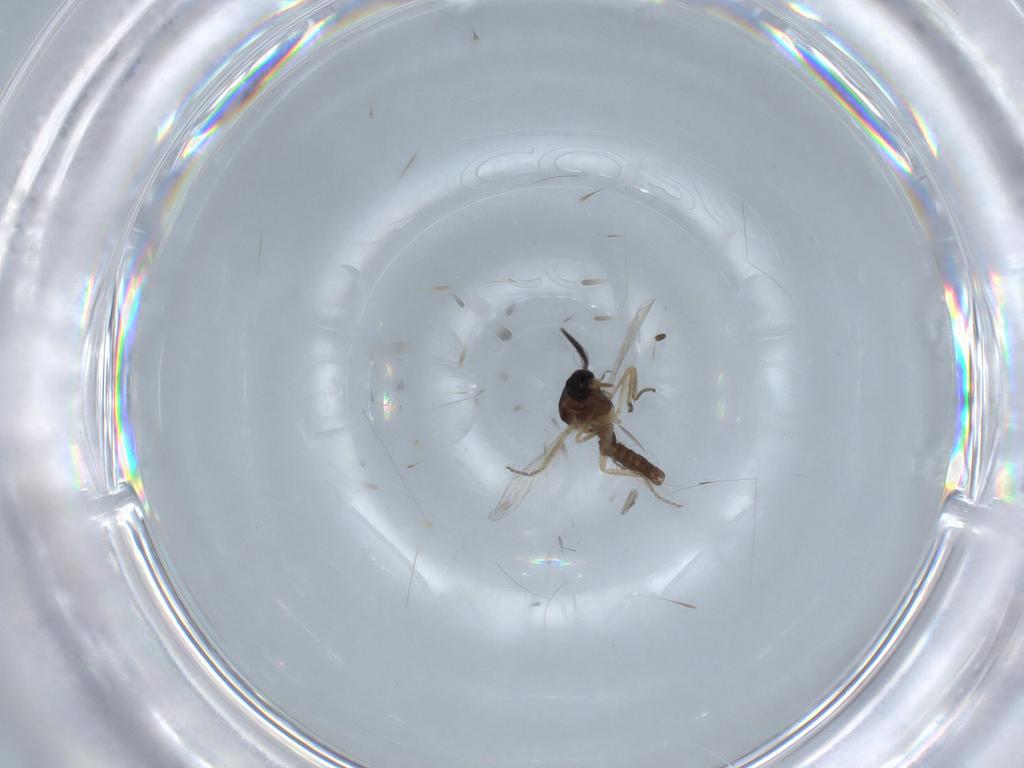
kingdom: Animalia
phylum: Arthropoda
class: Insecta
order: Diptera
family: Ceratopogonidae
